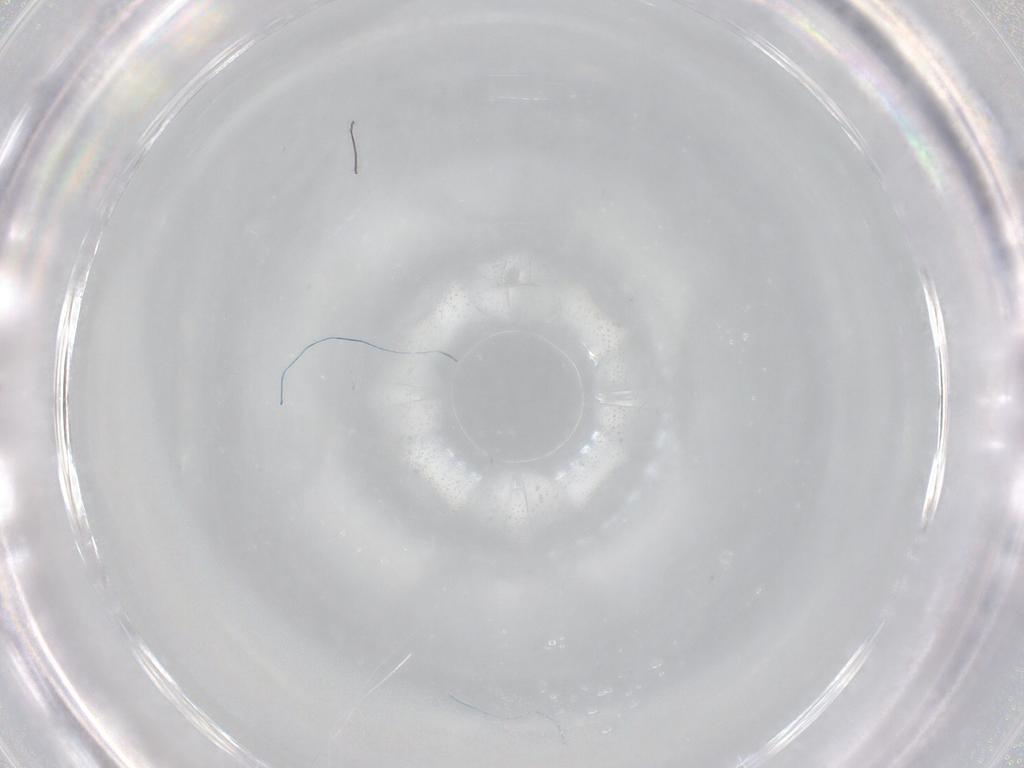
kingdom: Animalia
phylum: Arthropoda
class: Insecta
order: Diptera
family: Cecidomyiidae
